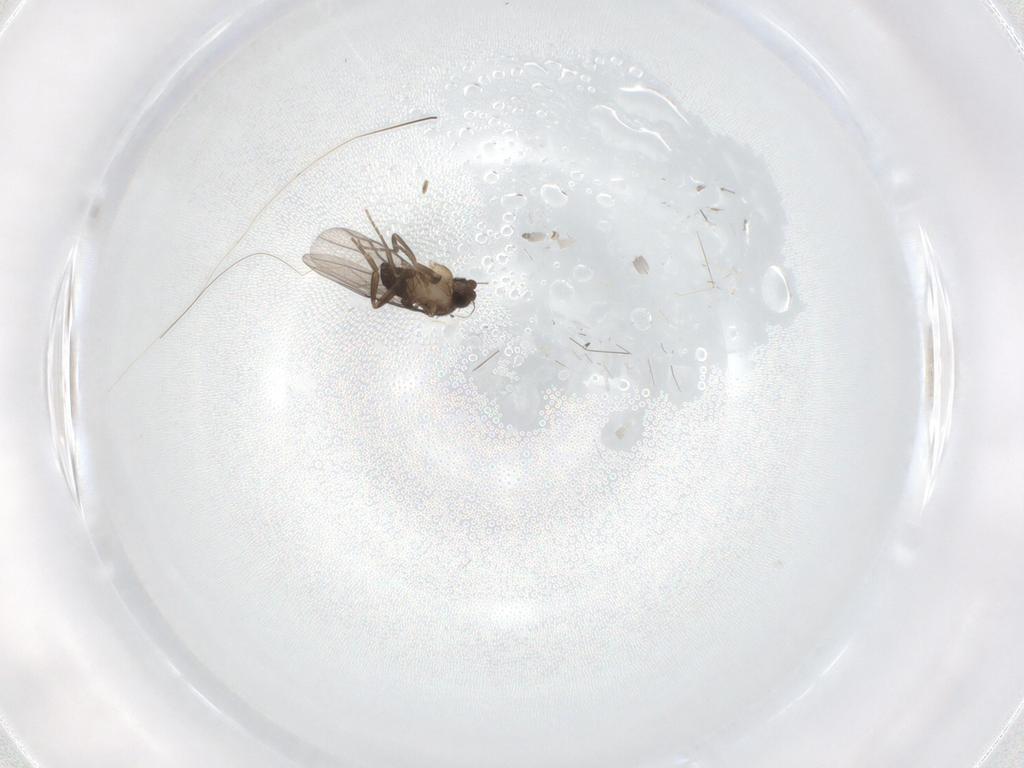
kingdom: Animalia
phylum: Arthropoda
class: Insecta
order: Diptera
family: Phoridae
